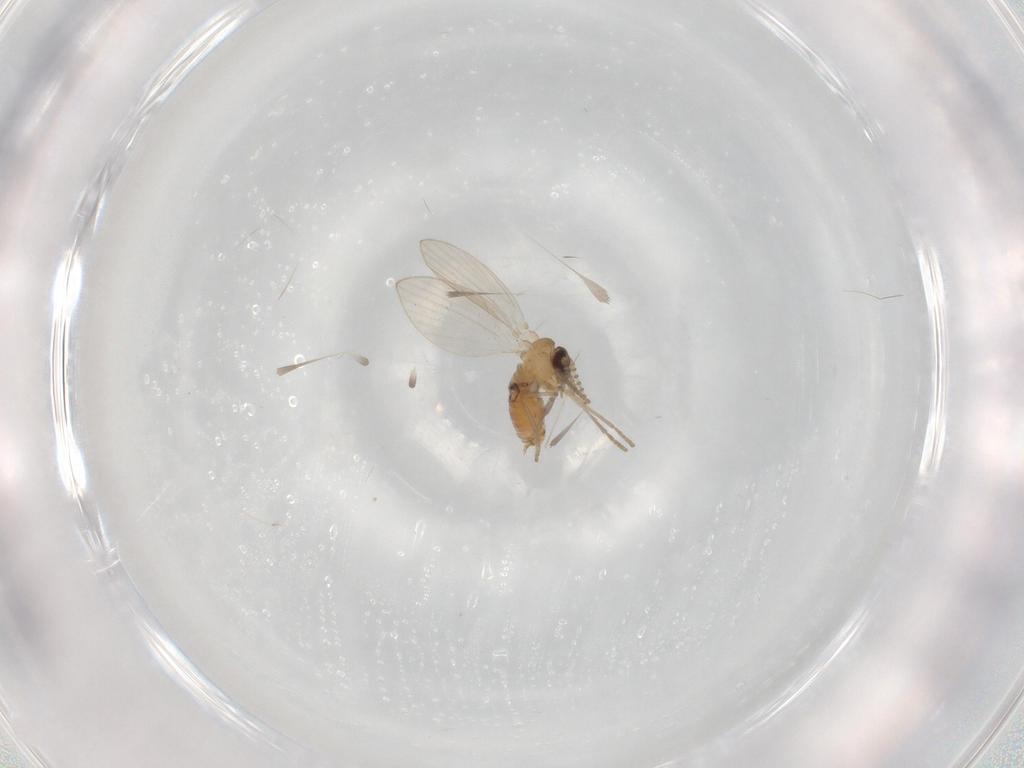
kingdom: Animalia
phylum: Arthropoda
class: Insecta
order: Diptera
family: Psychodidae
